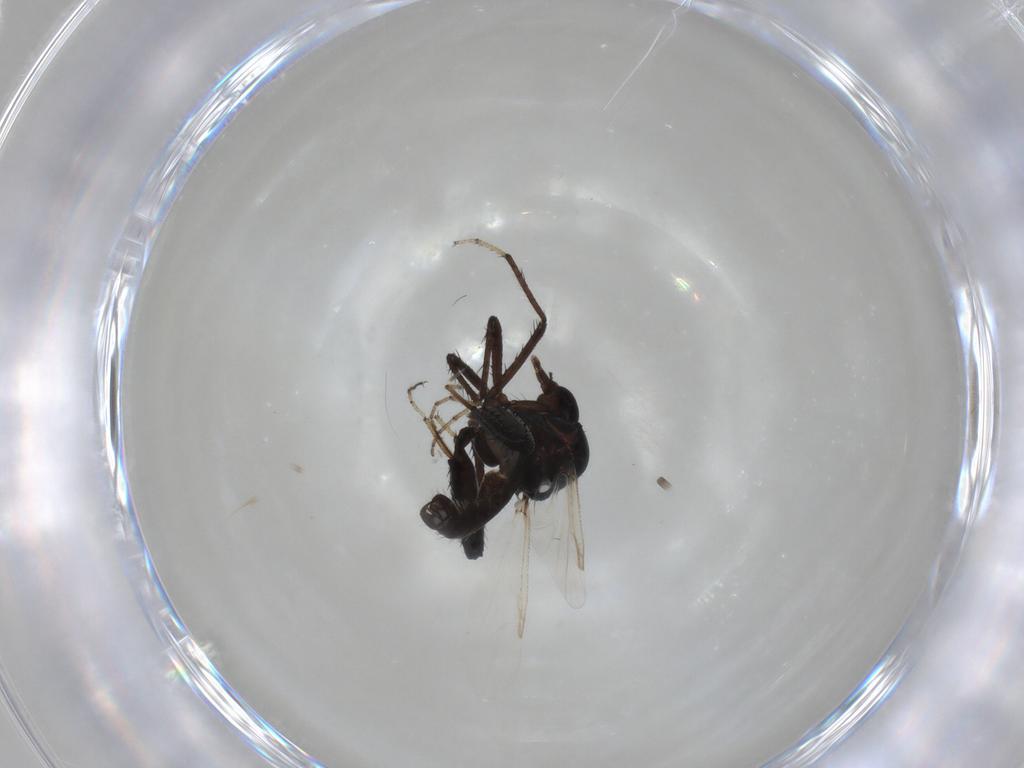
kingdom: Animalia
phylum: Arthropoda
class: Insecta
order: Diptera
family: Ceratopogonidae
